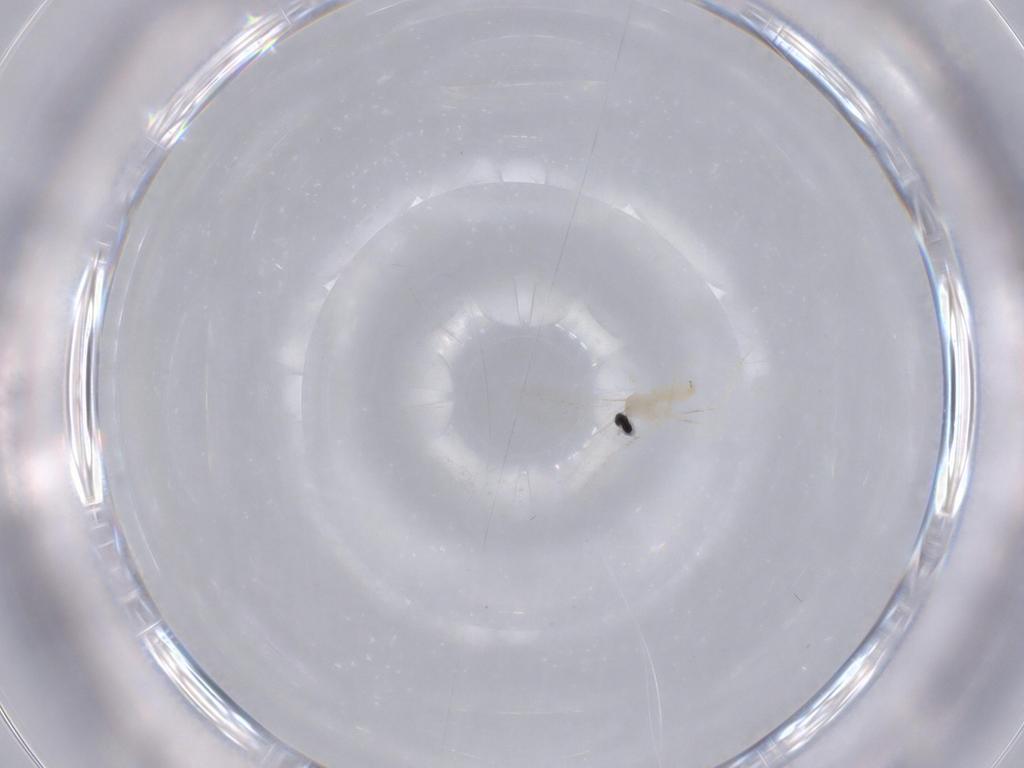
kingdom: Animalia
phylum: Arthropoda
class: Insecta
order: Diptera
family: Cecidomyiidae
